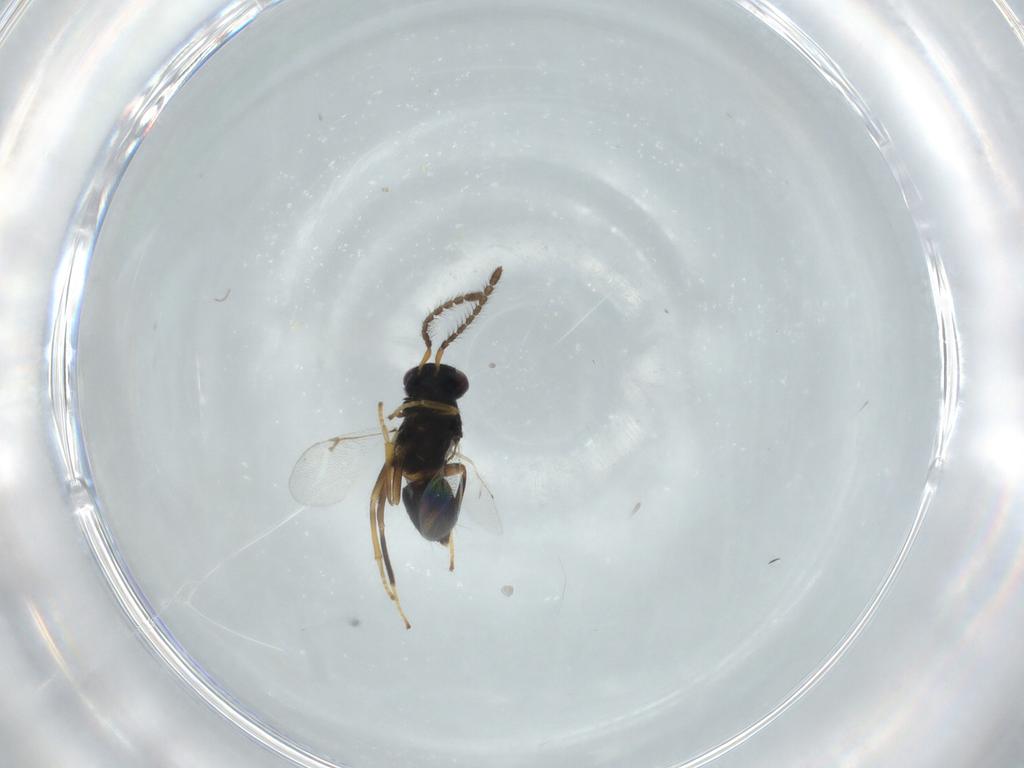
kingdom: Animalia
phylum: Arthropoda
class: Insecta
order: Hymenoptera
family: Encyrtidae
